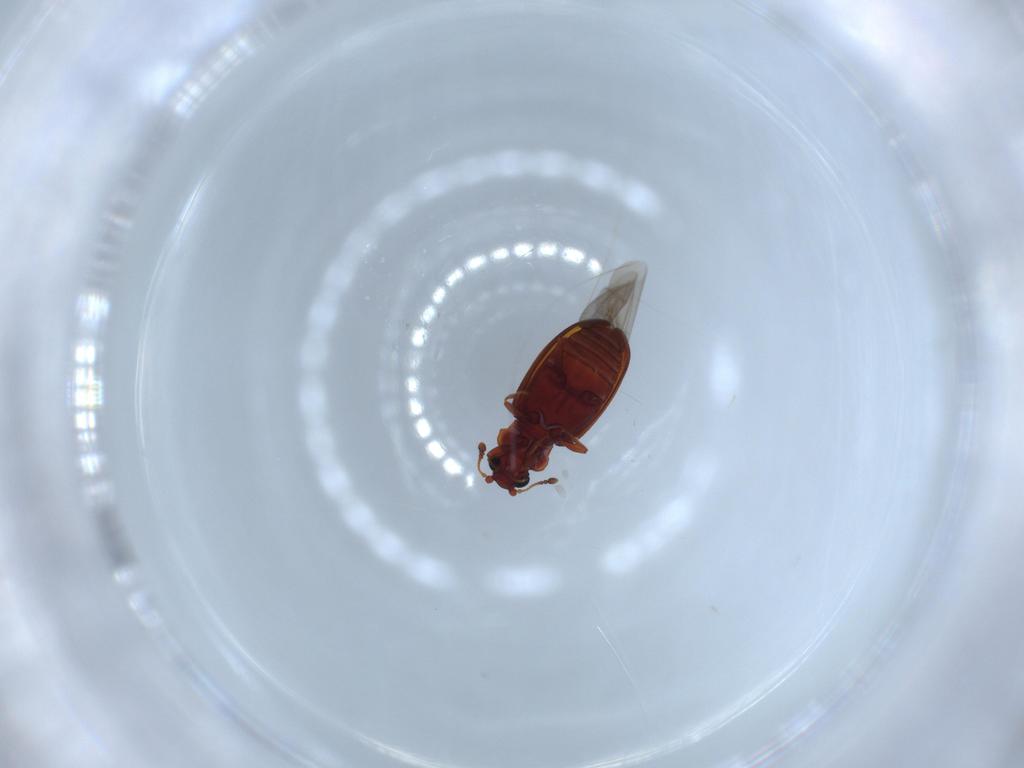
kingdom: Animalia
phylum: Arthropoda
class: Insecta
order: Coleoptera
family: Latridiidae
